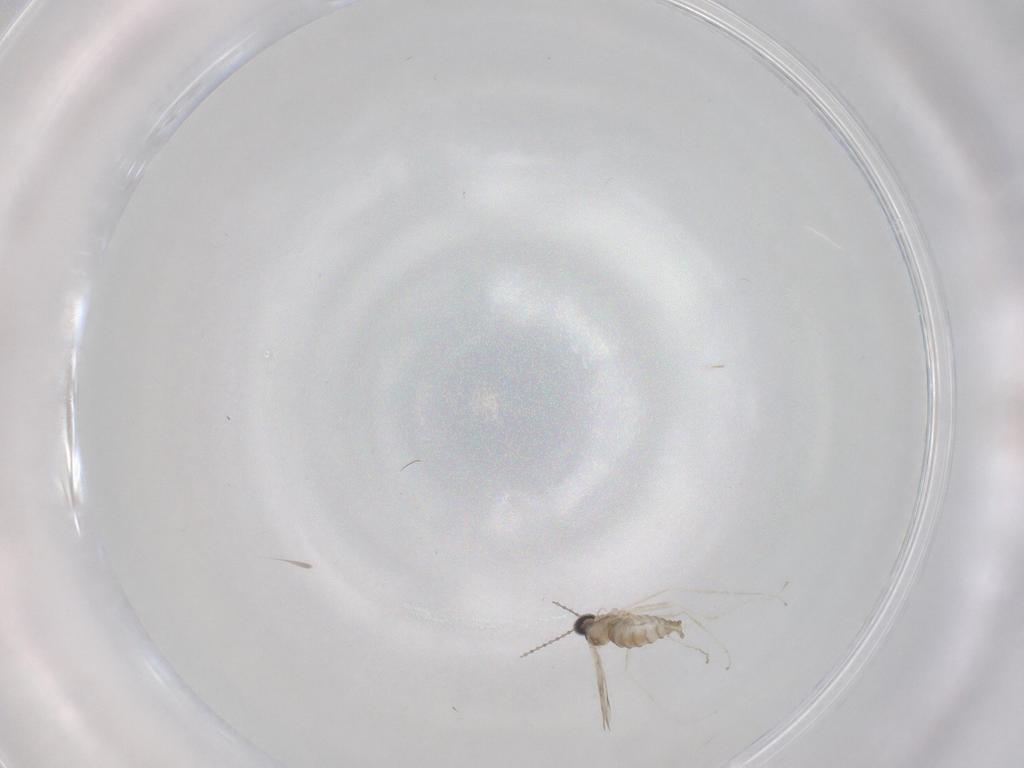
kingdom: Animalia
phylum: Arthropoda
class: Insecta
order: Diptera
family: Cecidomyiidae
